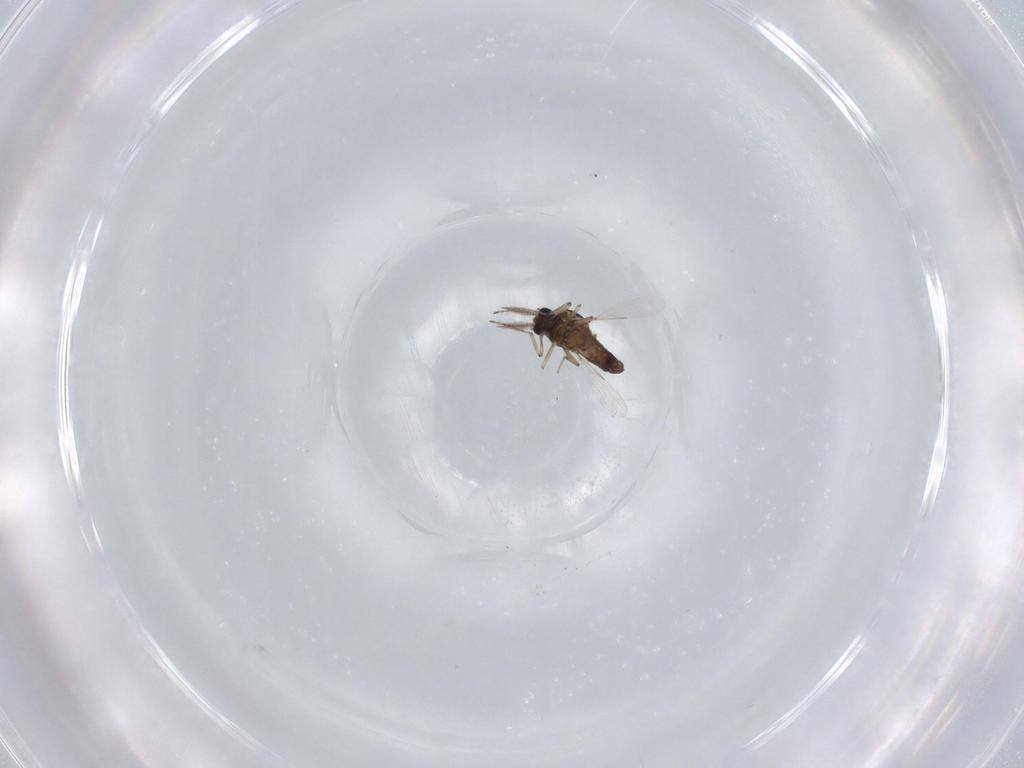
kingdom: Animalia
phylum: Arthropoda
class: Insecta
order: Diptera
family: Ceratopogonidae
